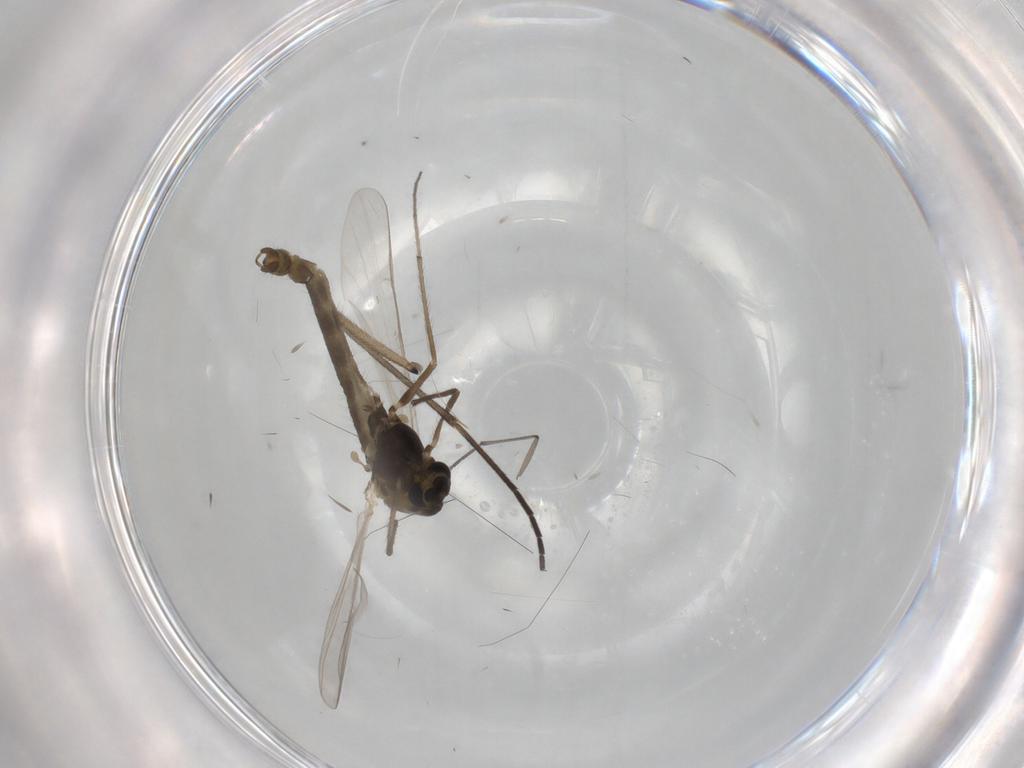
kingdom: Animalia
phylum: Arthropoda
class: Insecta
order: Diptera
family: Sciaridae
